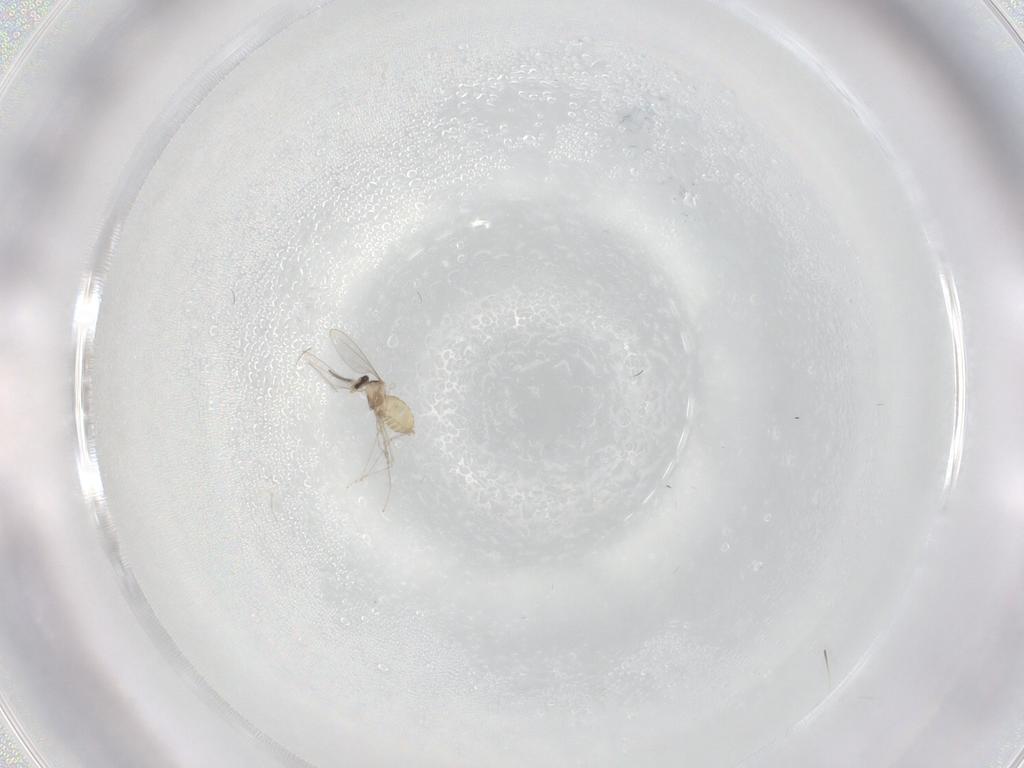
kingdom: Animalia
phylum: Arthropoda
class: Insecta
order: Diptera
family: Cecidomyiidae
